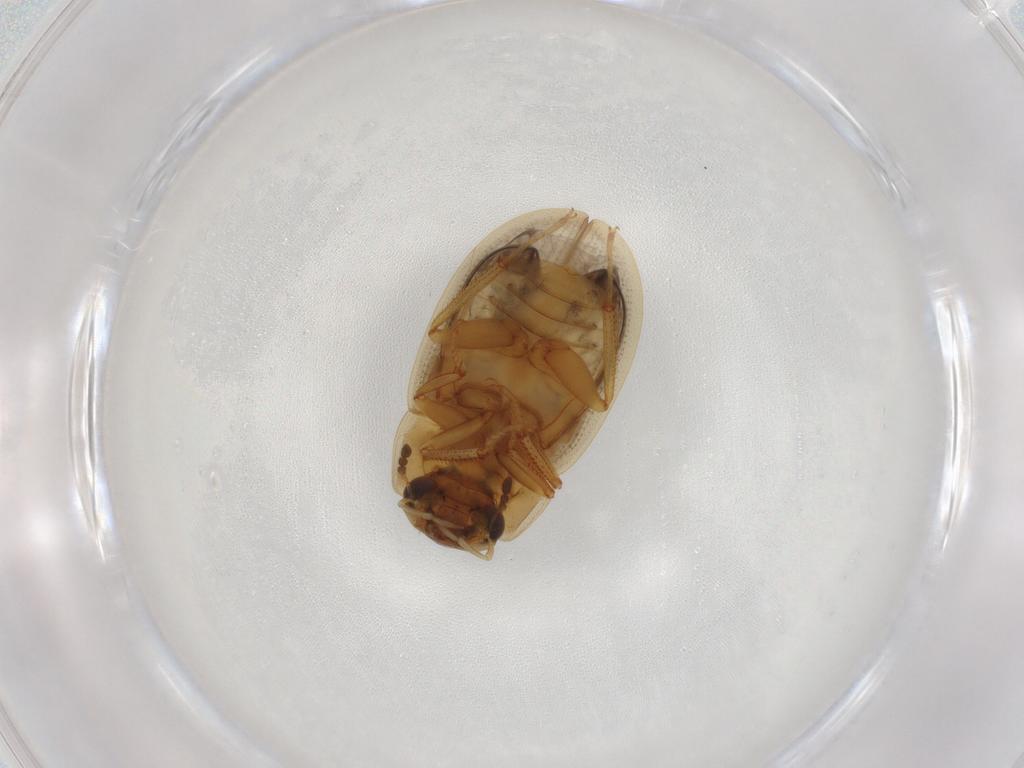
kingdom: Animalia
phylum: Arthropoda
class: Insecta
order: Coleoptera
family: Hydrophilidae
